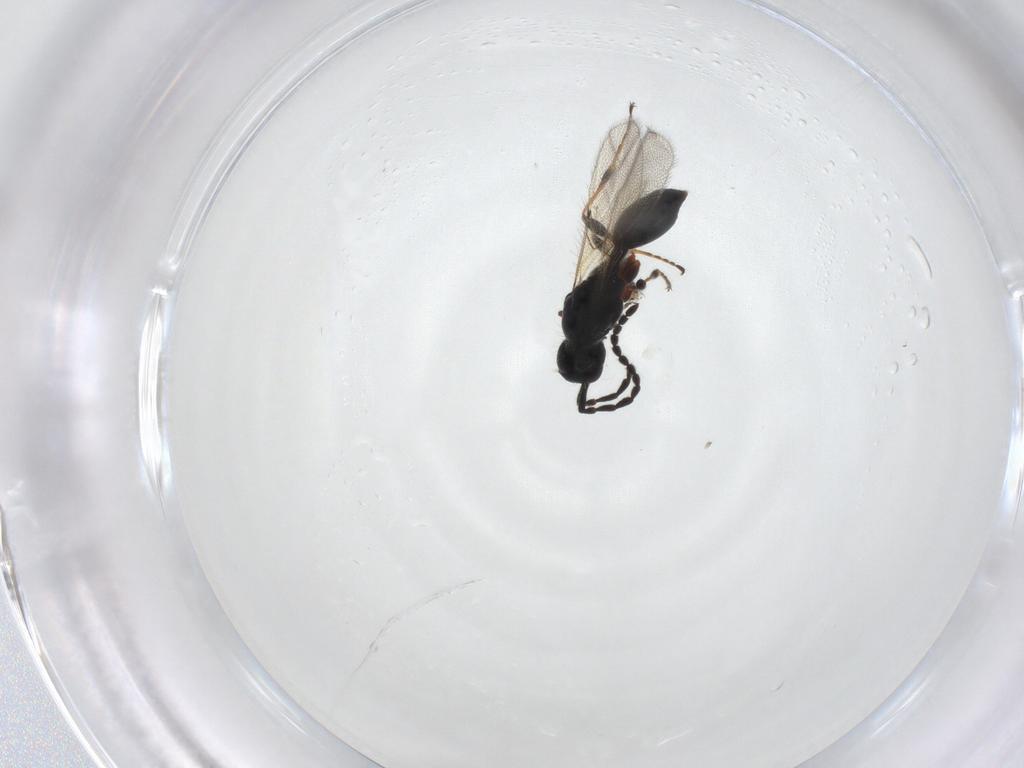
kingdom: Animalia
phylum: Arthropoda
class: Insecta
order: Hymenoptera
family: Diapriidae
